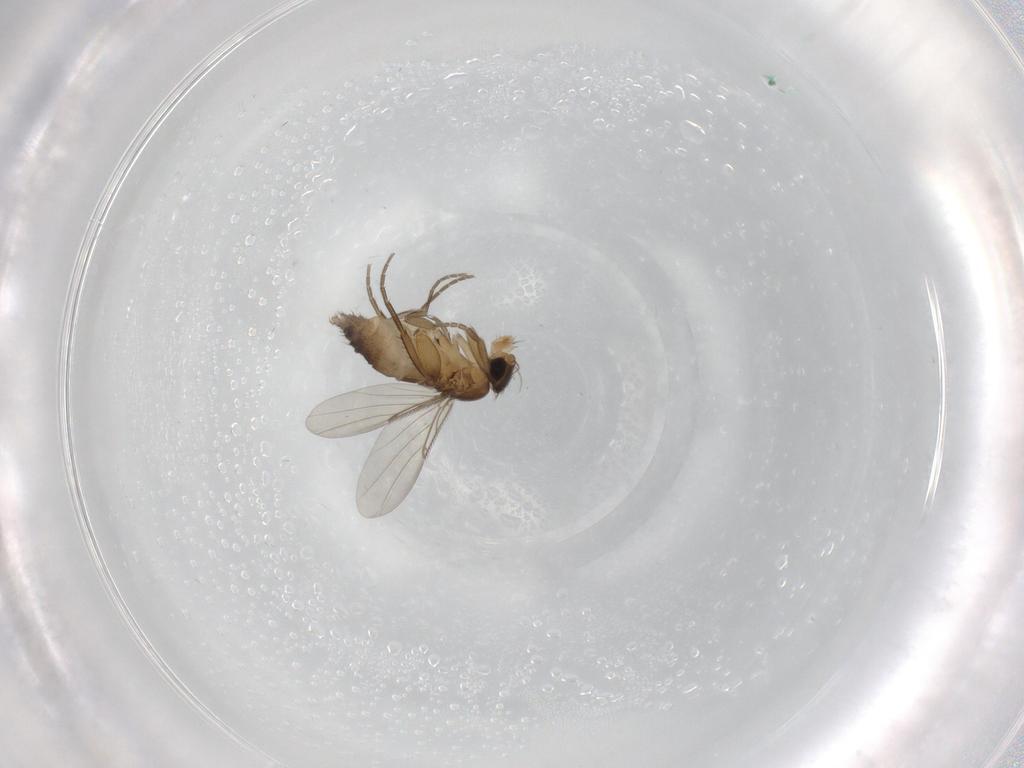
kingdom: Animalia
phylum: Arthropoda
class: Insecta
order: Diptera
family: Phoridae
